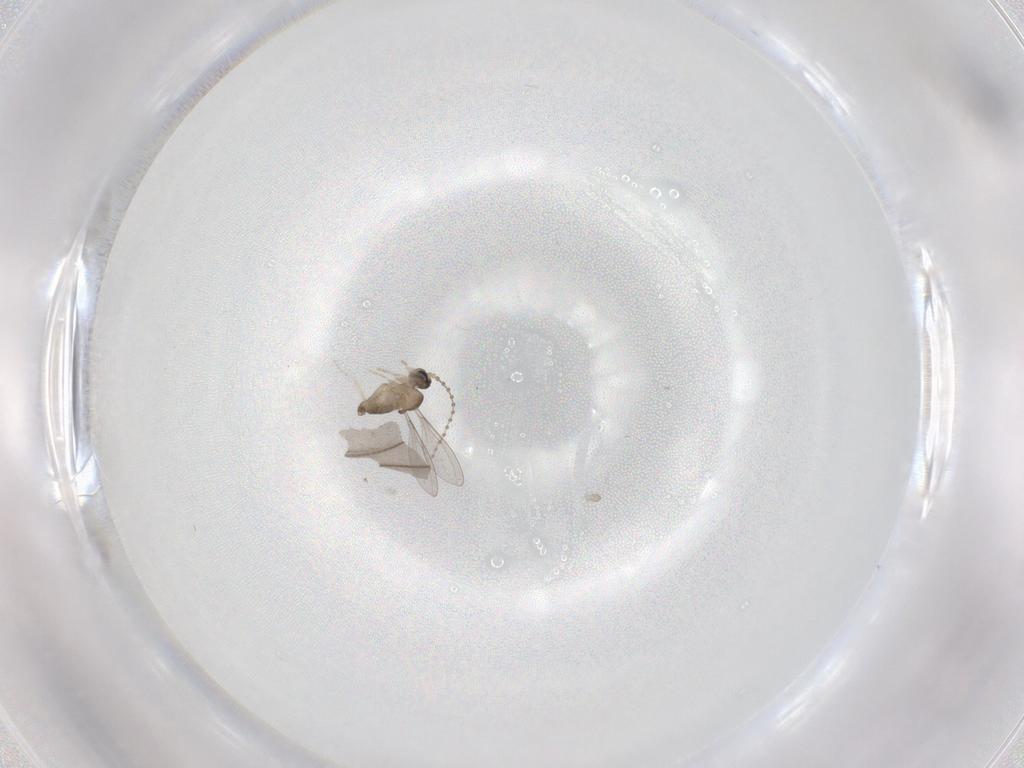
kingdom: Animalia
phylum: Arthropoda
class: Insecta
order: Diptera
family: Cecidomyiidae
